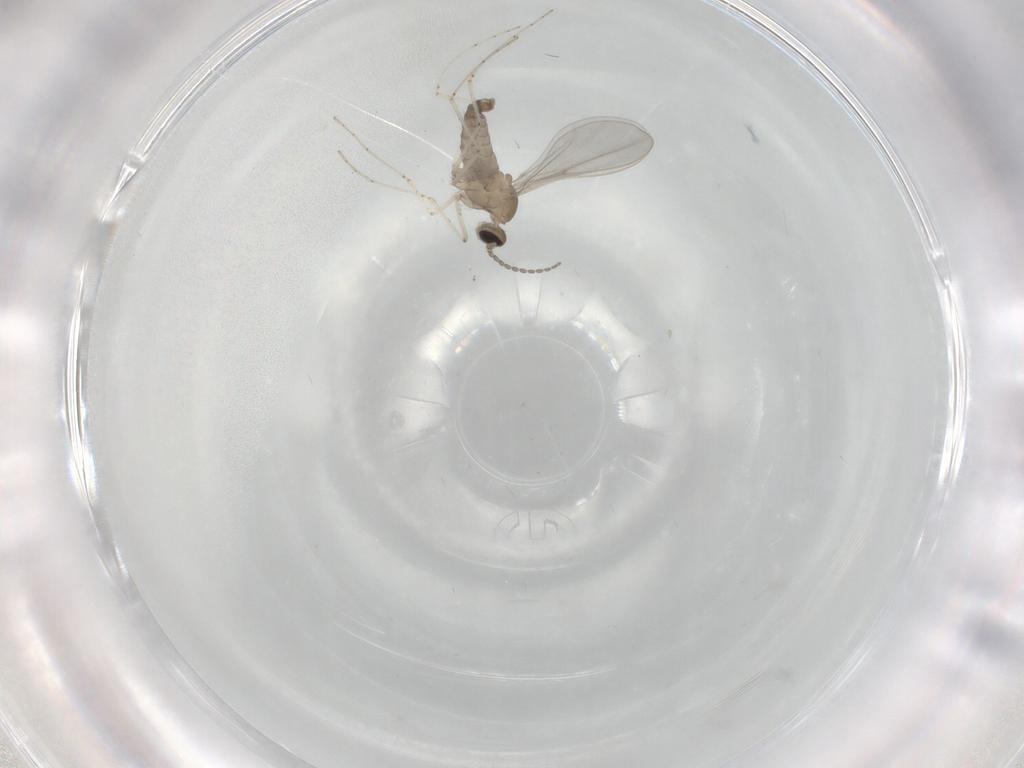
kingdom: Animalia
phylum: Arthropoda
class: Insecta
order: Diptera
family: Cecidomyiidae
